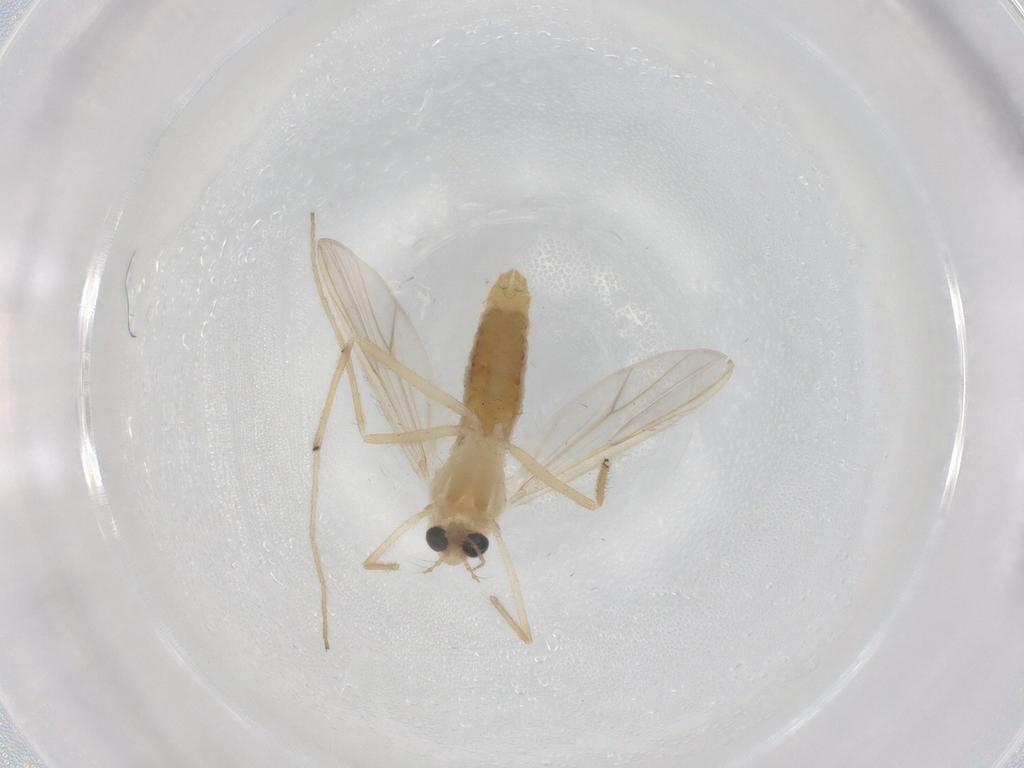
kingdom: Animalia
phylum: Arthropoda
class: Insecta
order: Diptera
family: Chironomidae
